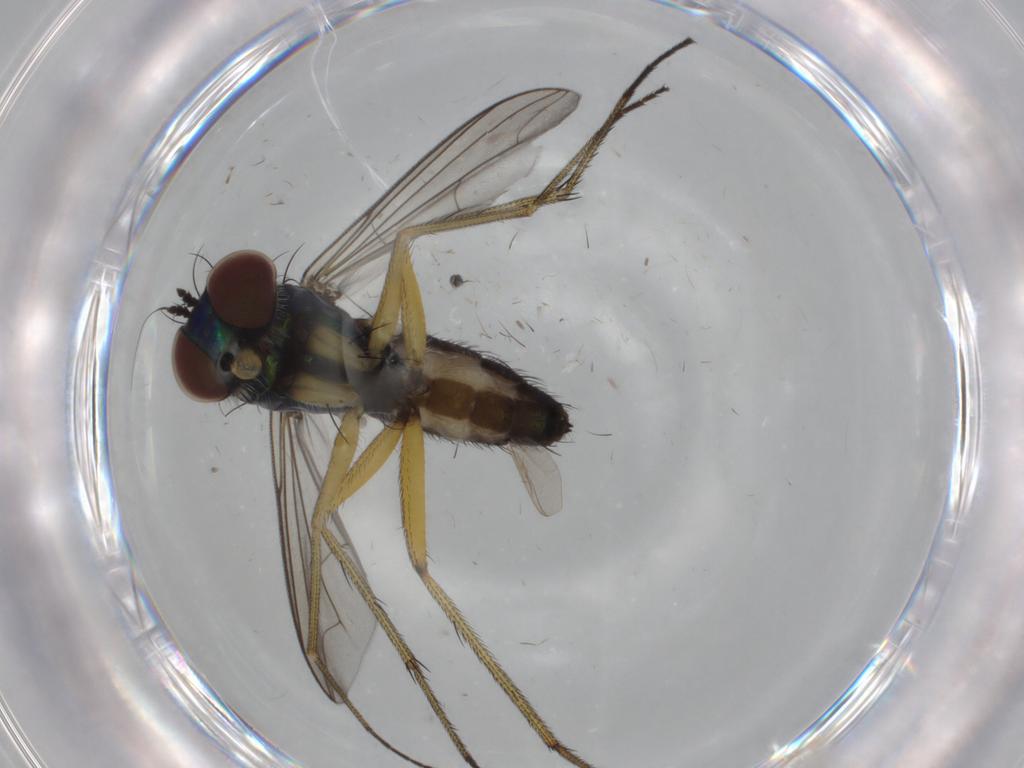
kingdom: Animalia
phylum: Arthropoda
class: Insecta
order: Diptera
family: Dolichopodidae
